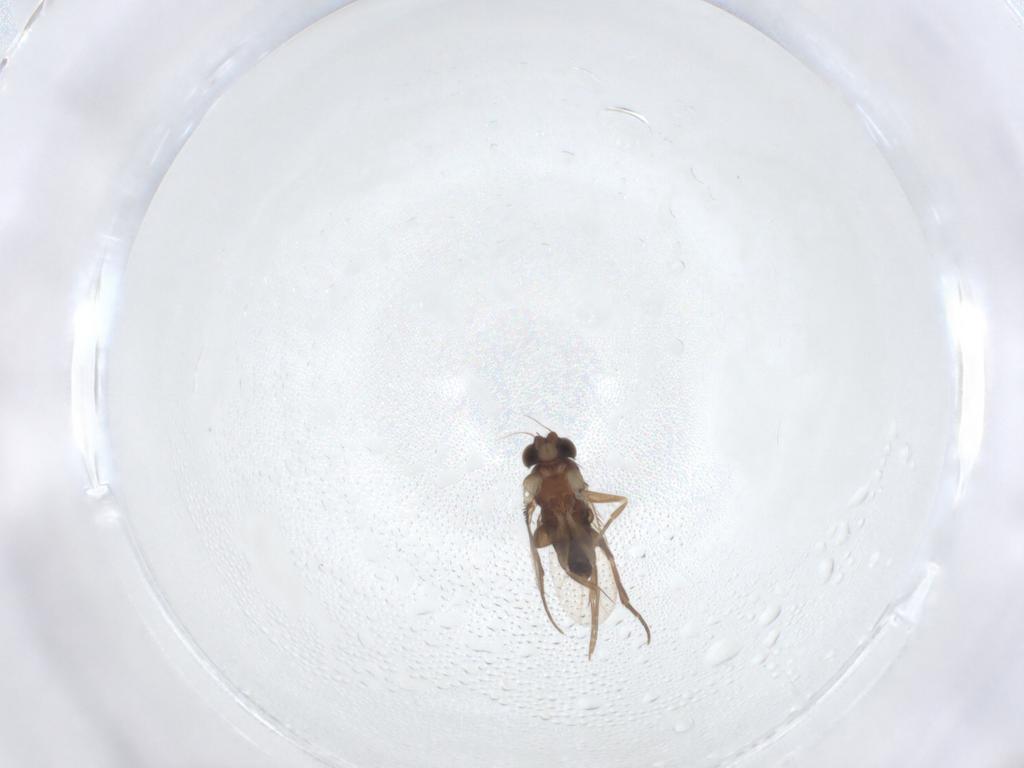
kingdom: Animalia
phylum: Arthropoda
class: Insecta
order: Diptera
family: Phoridae
